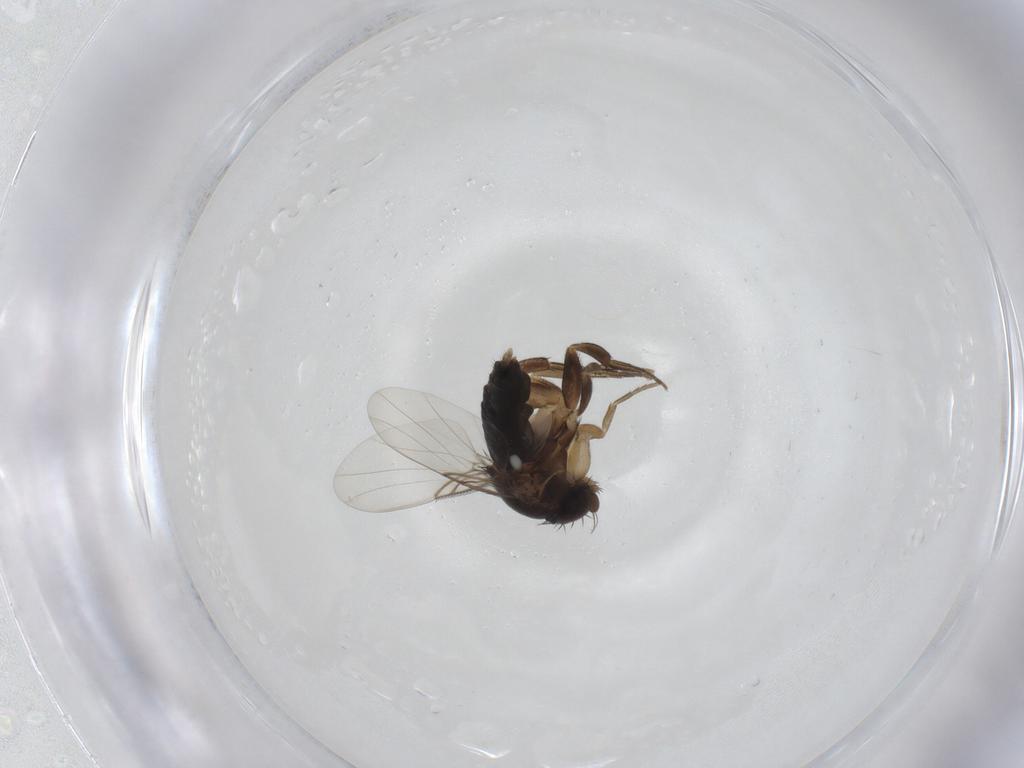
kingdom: Animalia
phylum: Arthropoda
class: Insecta
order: Diptera
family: Phoridae
